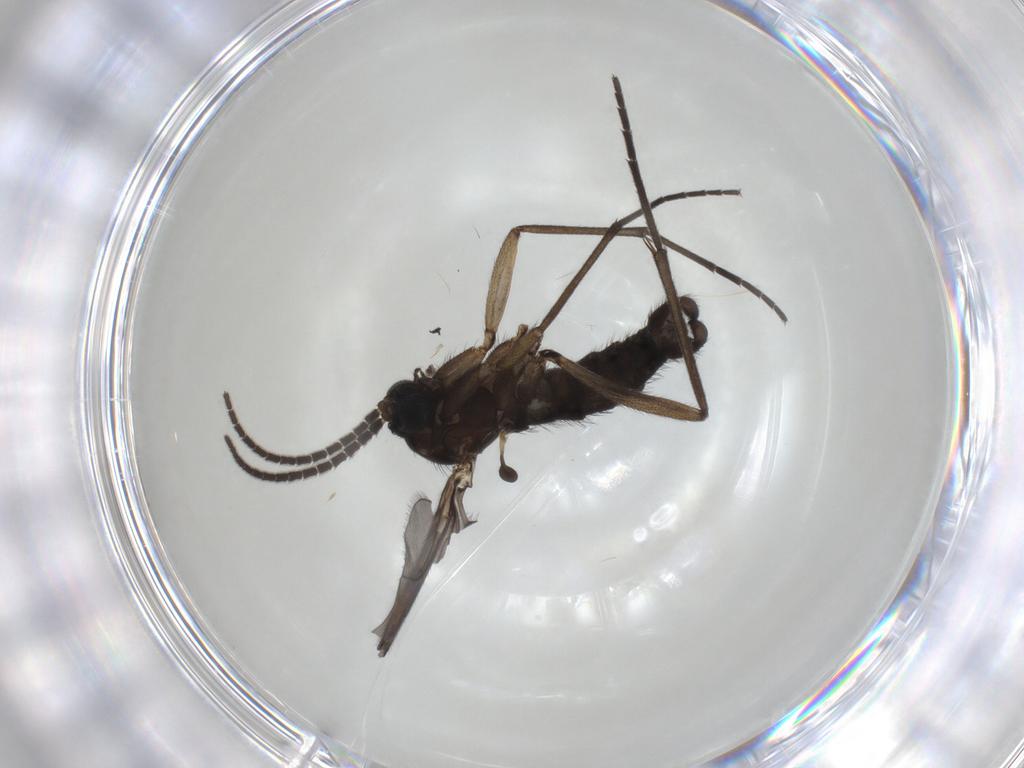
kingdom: Animalia
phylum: Arthropoda
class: Insecta
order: Diptera
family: Sciaridae
